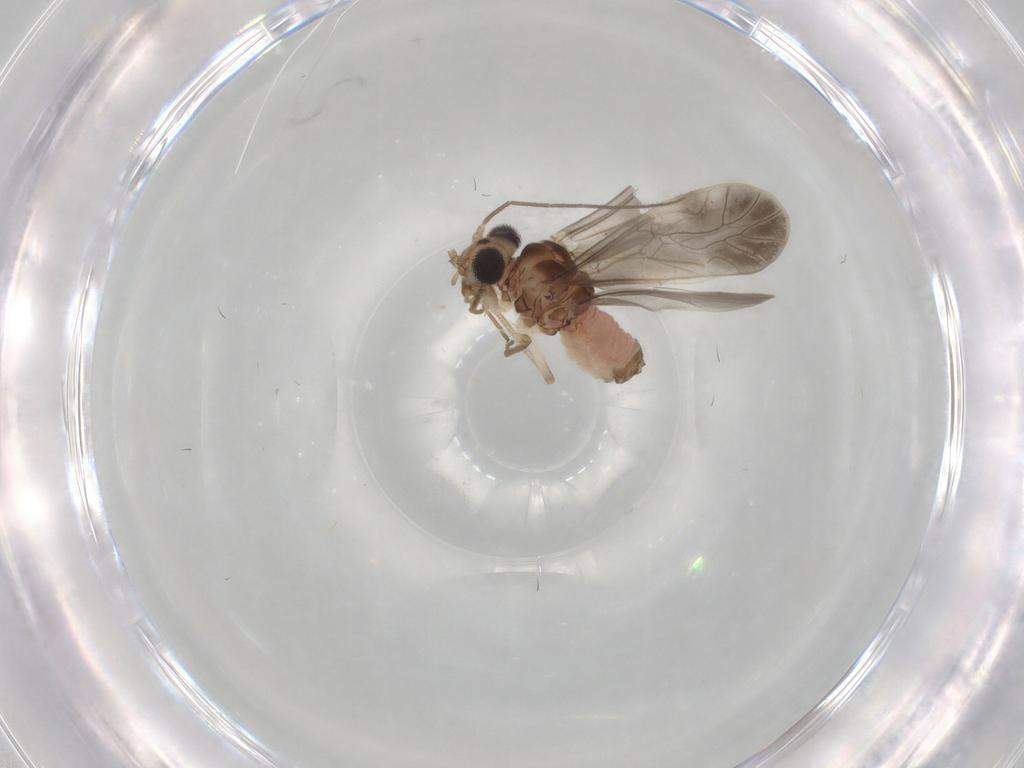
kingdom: Animalia
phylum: Arthropoda
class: Insecta
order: Psocodea
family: Caeciliusidae
